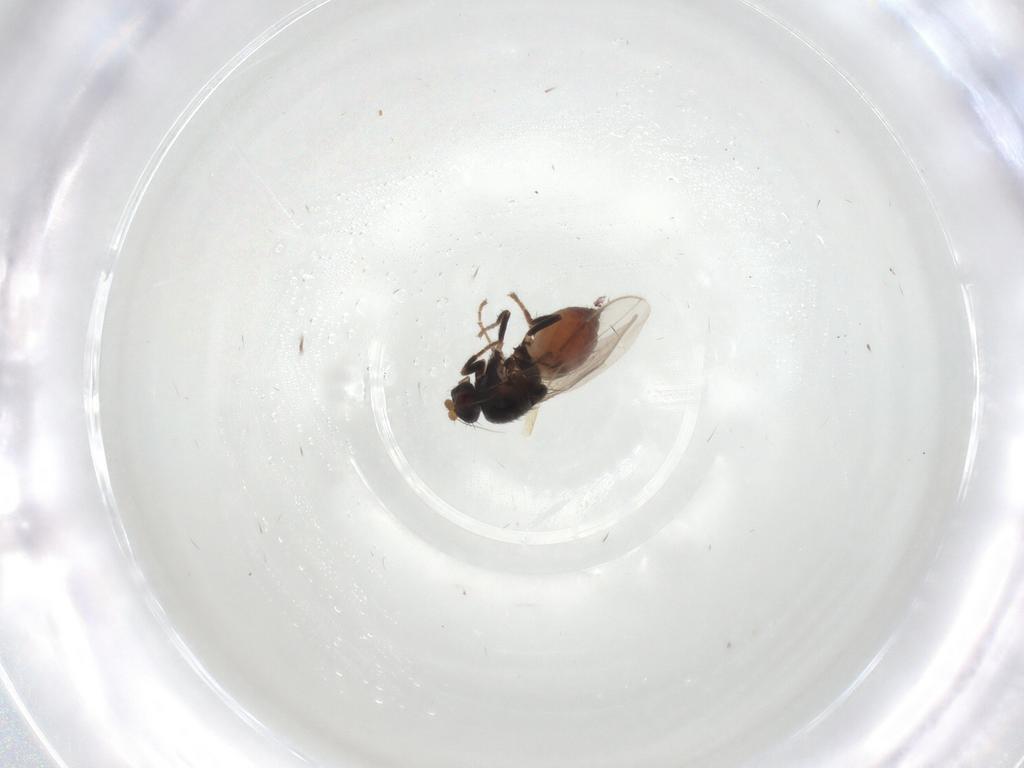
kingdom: Animalia
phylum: Arthropoda
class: Insecta
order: Diptera
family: Sphaeroceridae
